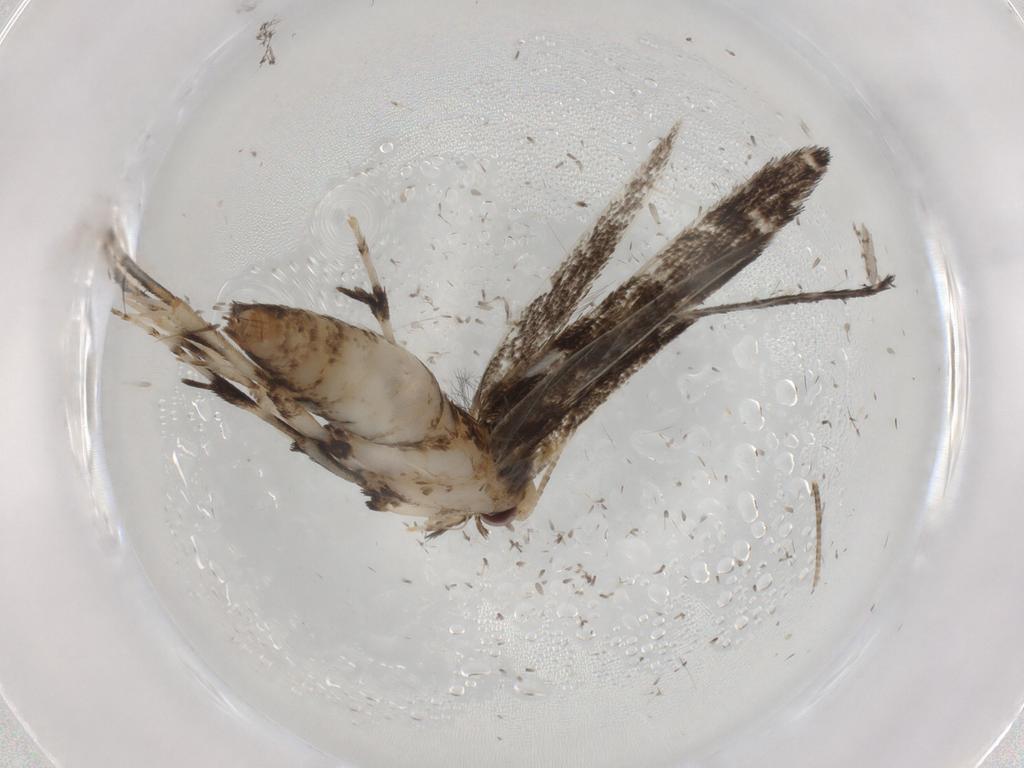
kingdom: Animalia
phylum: Arthropoda
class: Insecta
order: Lepidoptera
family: Gracillariidae
